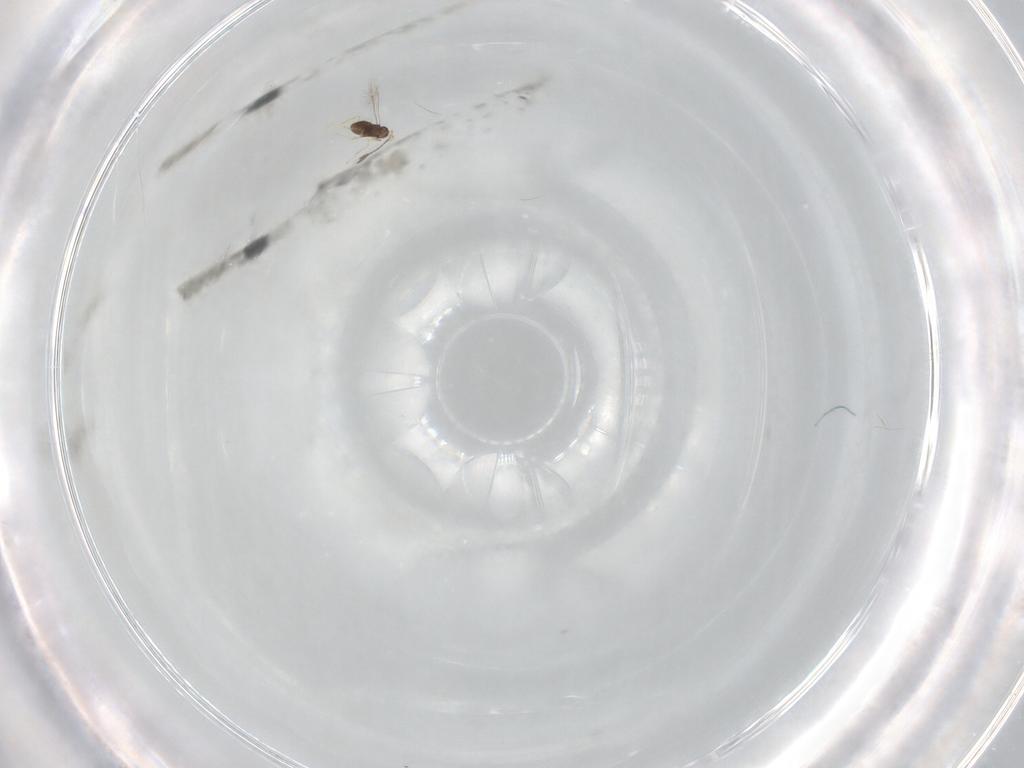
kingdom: Animalia
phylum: Arthropoda
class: Insecta
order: Hymenoptera
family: Mymaridae
